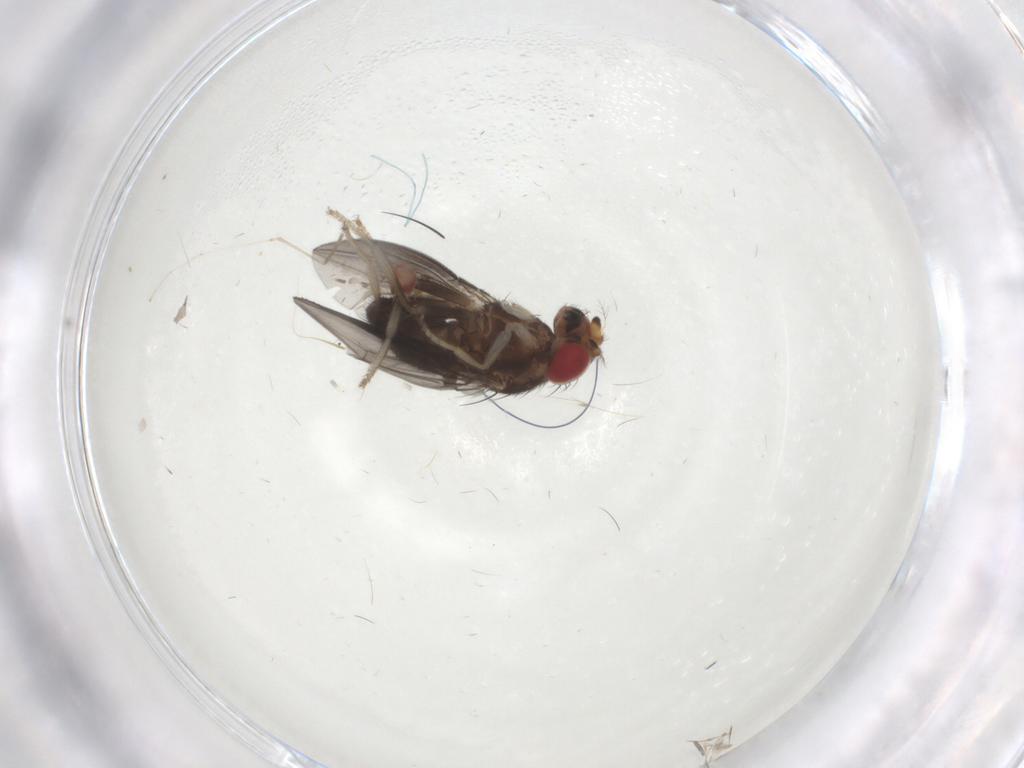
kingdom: Animalia
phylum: Arthropoda
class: Insecta
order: Diptera
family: Cecidomyiidae
